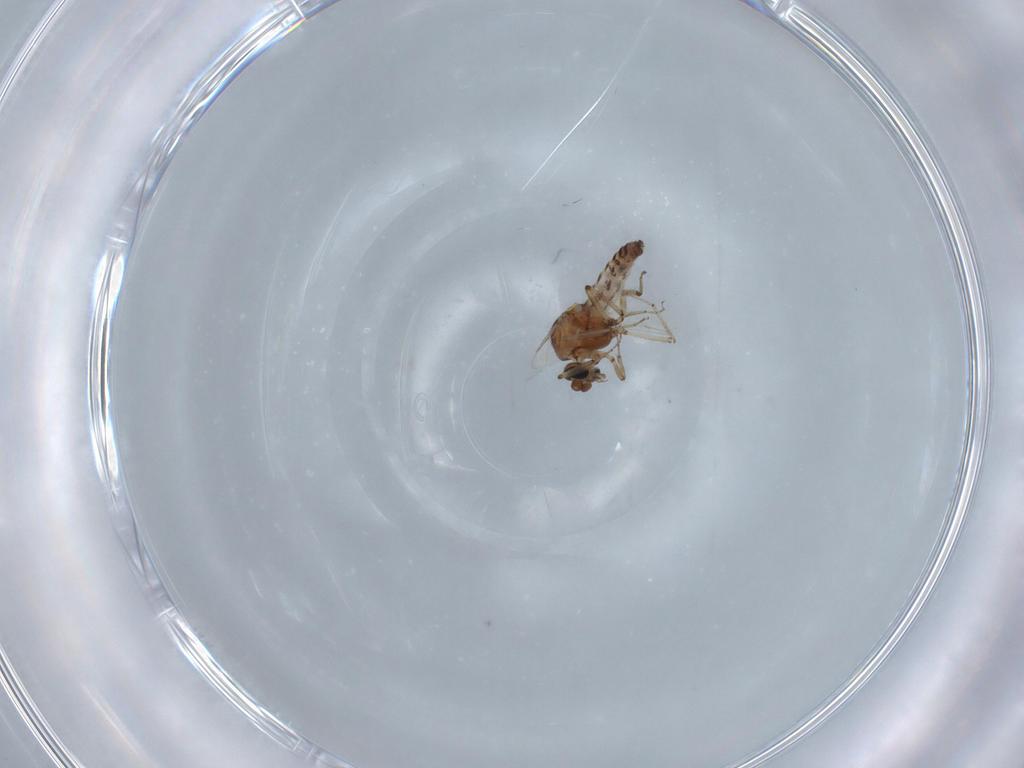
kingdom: Animalia
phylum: Arthropoda
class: Insecta
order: Diptera
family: Ceratopogonidae
